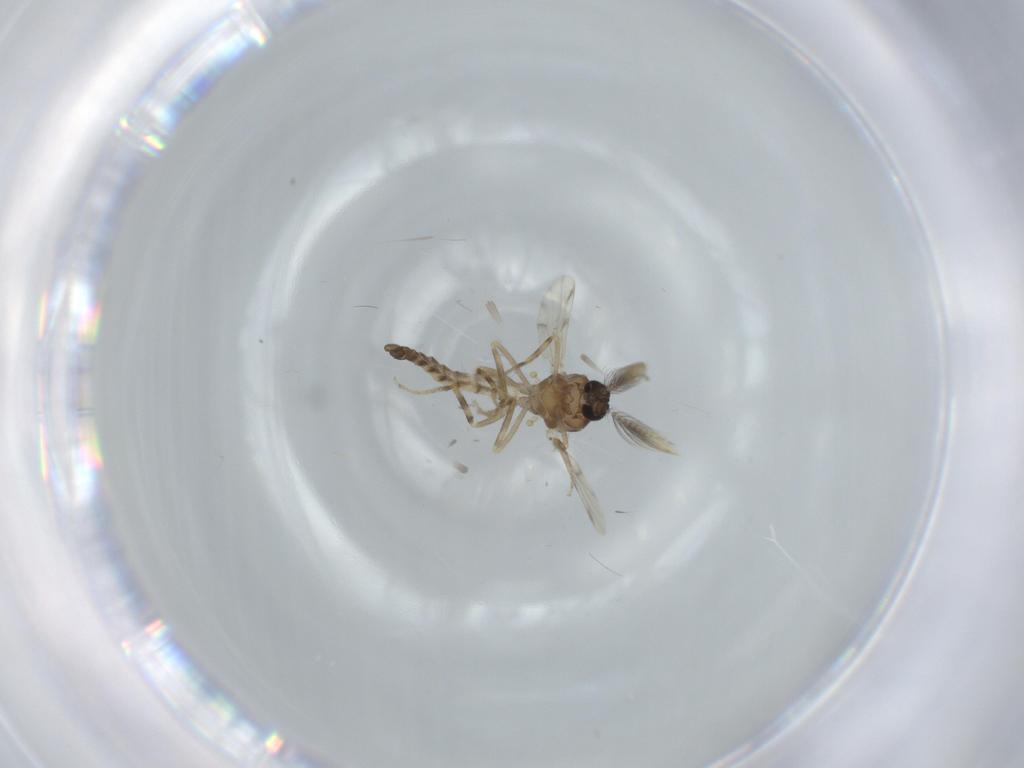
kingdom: Animalia
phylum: Arthropoda
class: Insecta
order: Diptera
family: Ceratopogonidae
